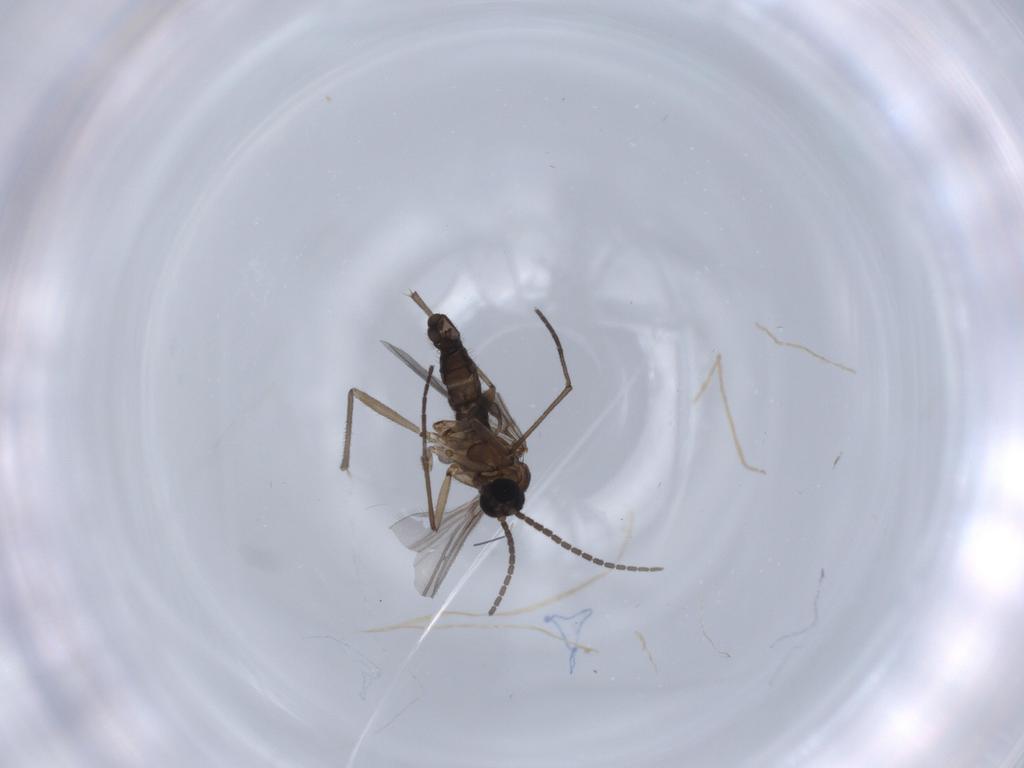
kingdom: Animalia
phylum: Arthropoda
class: Insecta
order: Diptera
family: Sciaridae
